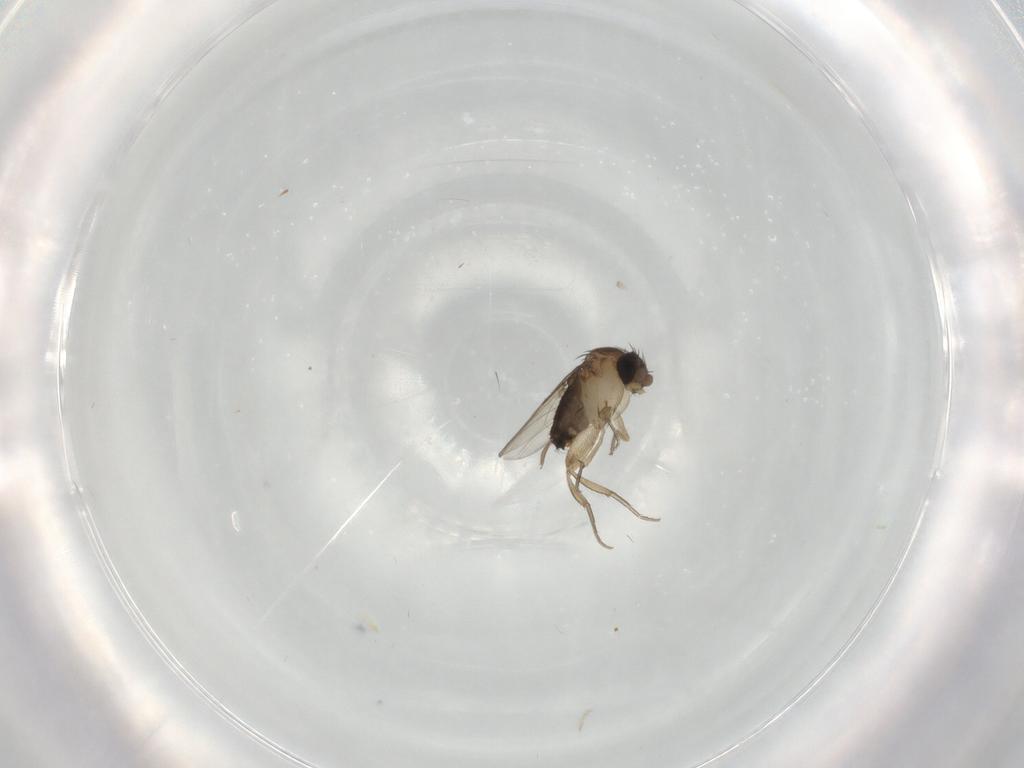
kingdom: Animalia
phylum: Arthropoda
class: Insecta
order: Diptera
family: Cecidomyiidae
